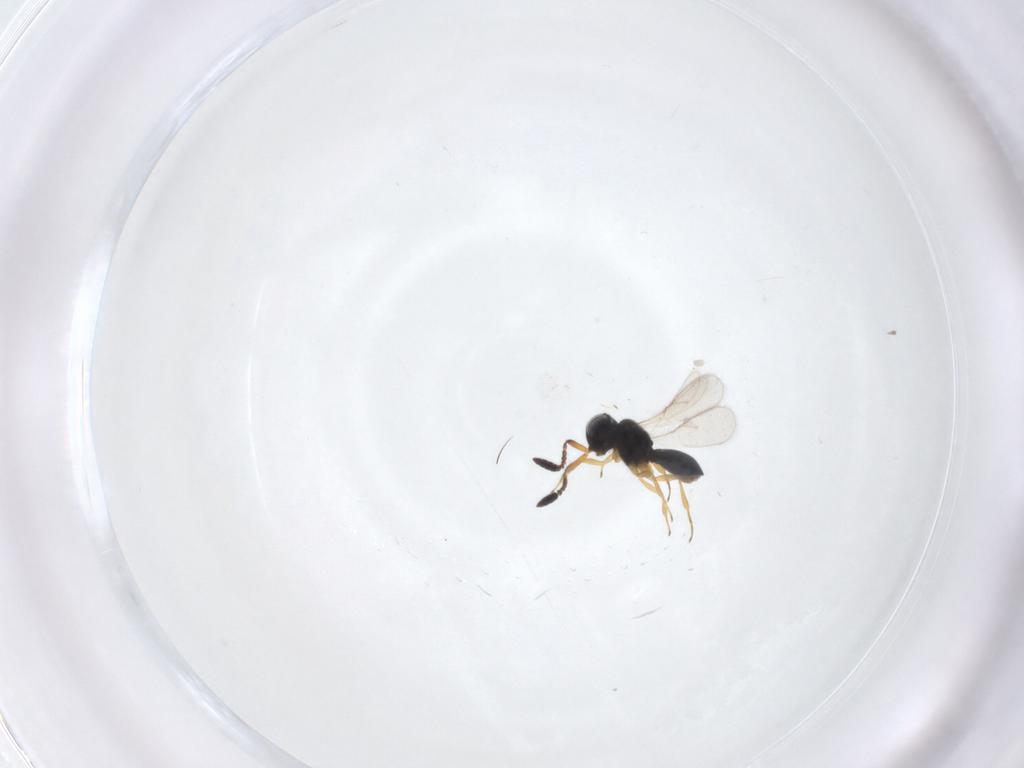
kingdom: Animalia
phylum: Arthropoda
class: Insecta
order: Hymenoptera
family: Scelionidae
